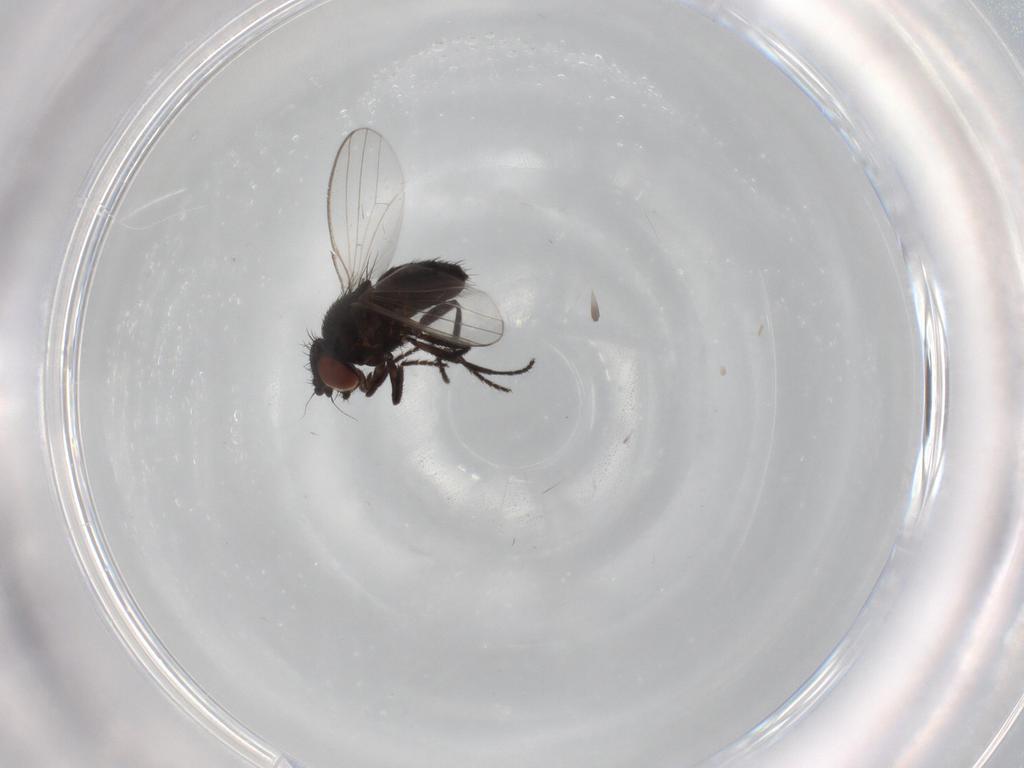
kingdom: Animalia
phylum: Arthropoda
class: Insecta
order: Diptera
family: Milichiidae
